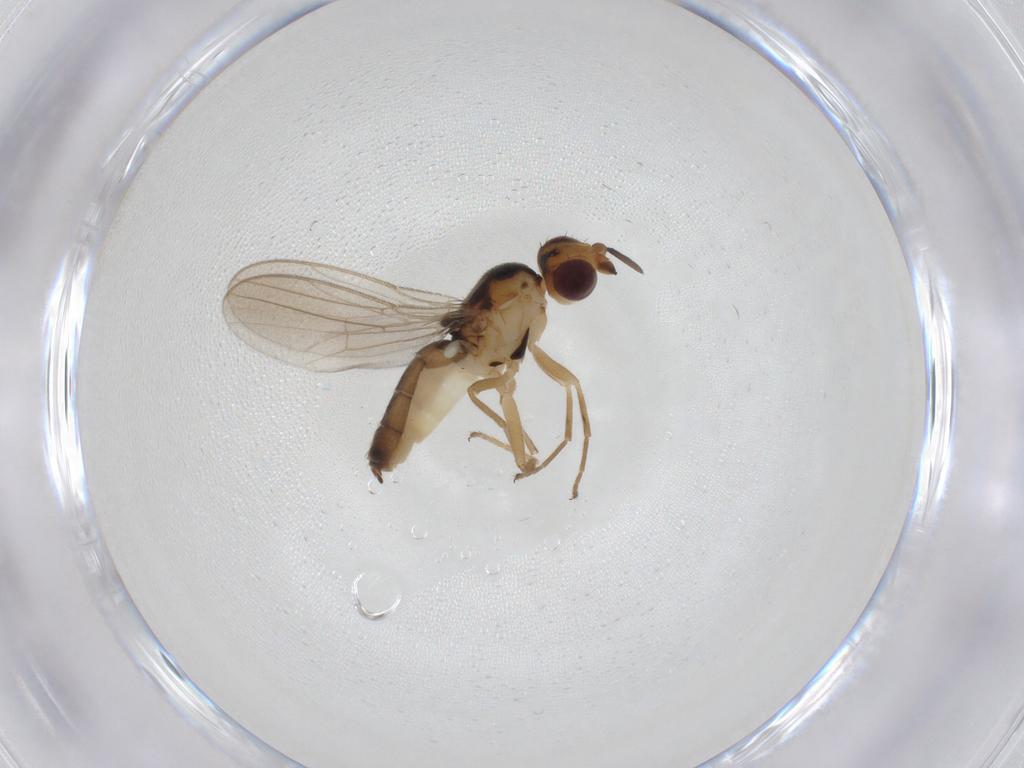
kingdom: Animalia
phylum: Arthropoda
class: Insecta
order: Diptera
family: Chloropidae
